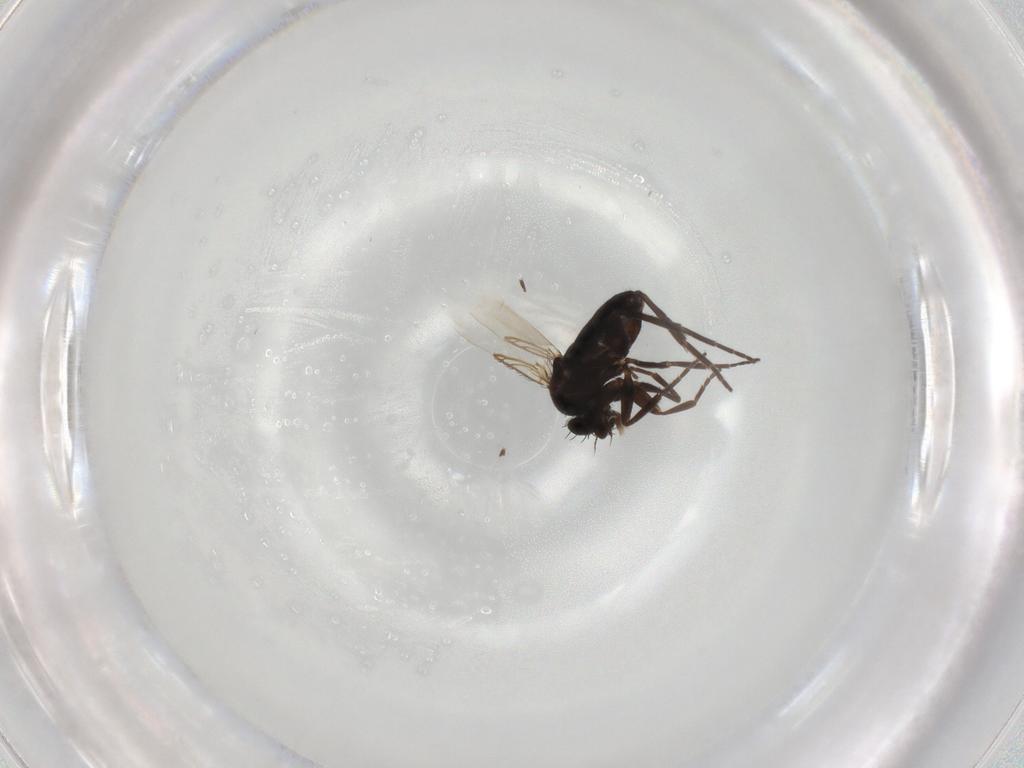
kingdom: Animalia
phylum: Arthropoda
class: Insecta
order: Diptera
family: Phoridae
